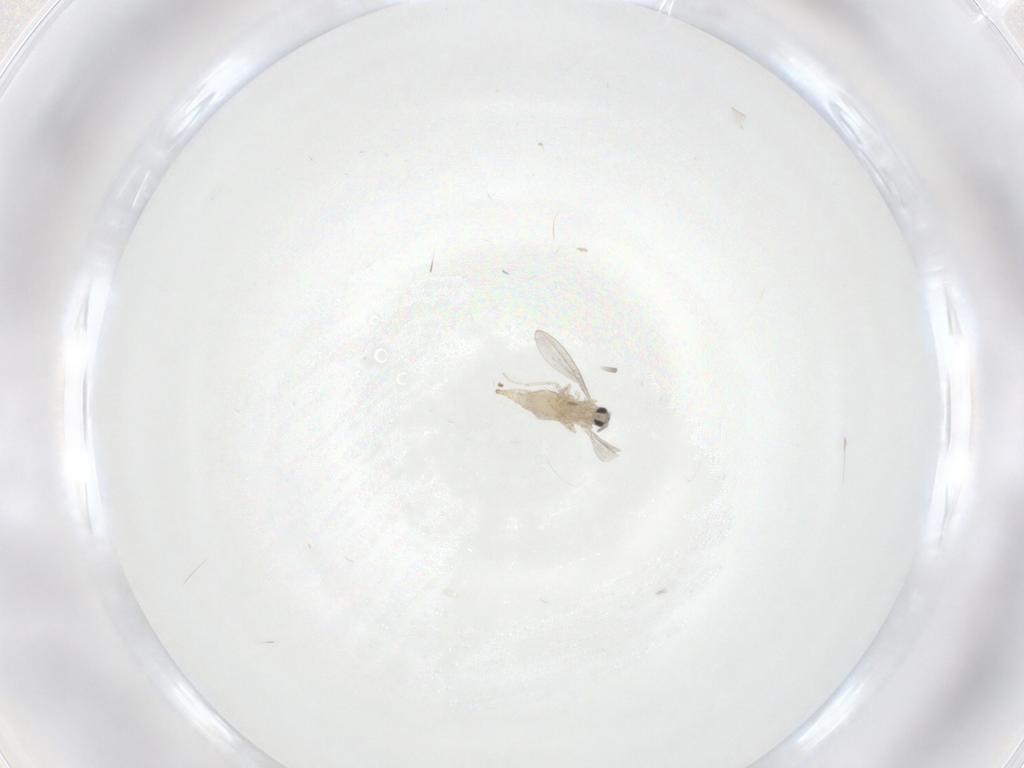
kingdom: Animalia
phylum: Arthropoda
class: Insecta
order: Diptera
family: Cecidomyiidae
